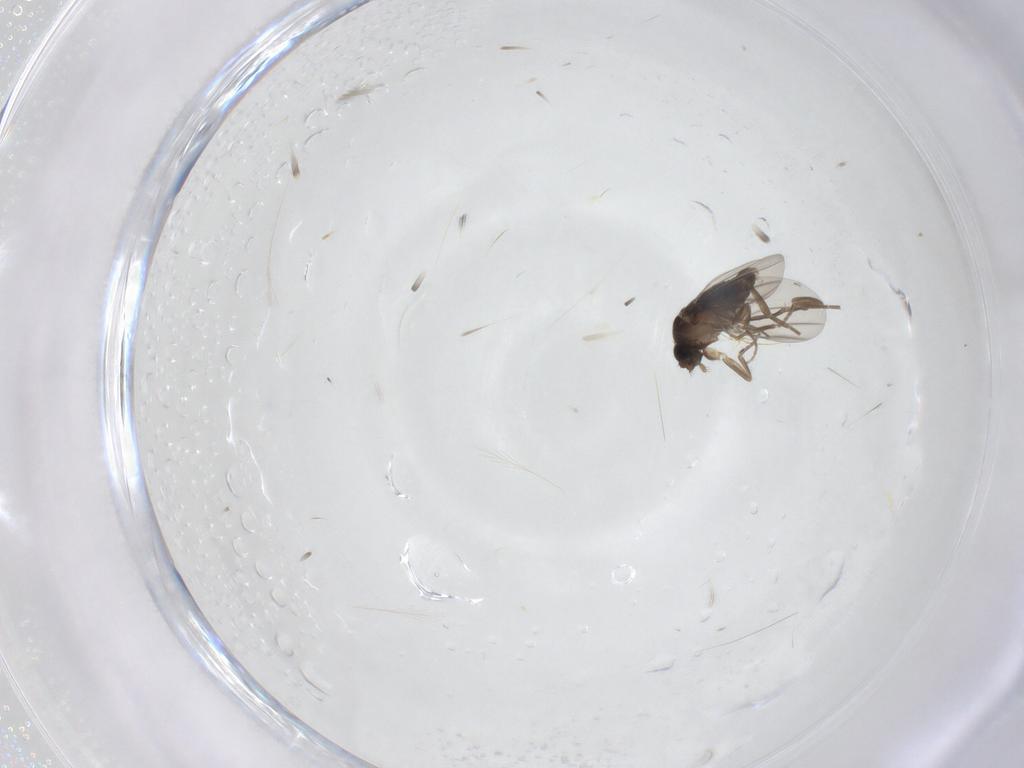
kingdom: Animalia
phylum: Arthropoda
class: Insecta
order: Diptera
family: Phoridae
